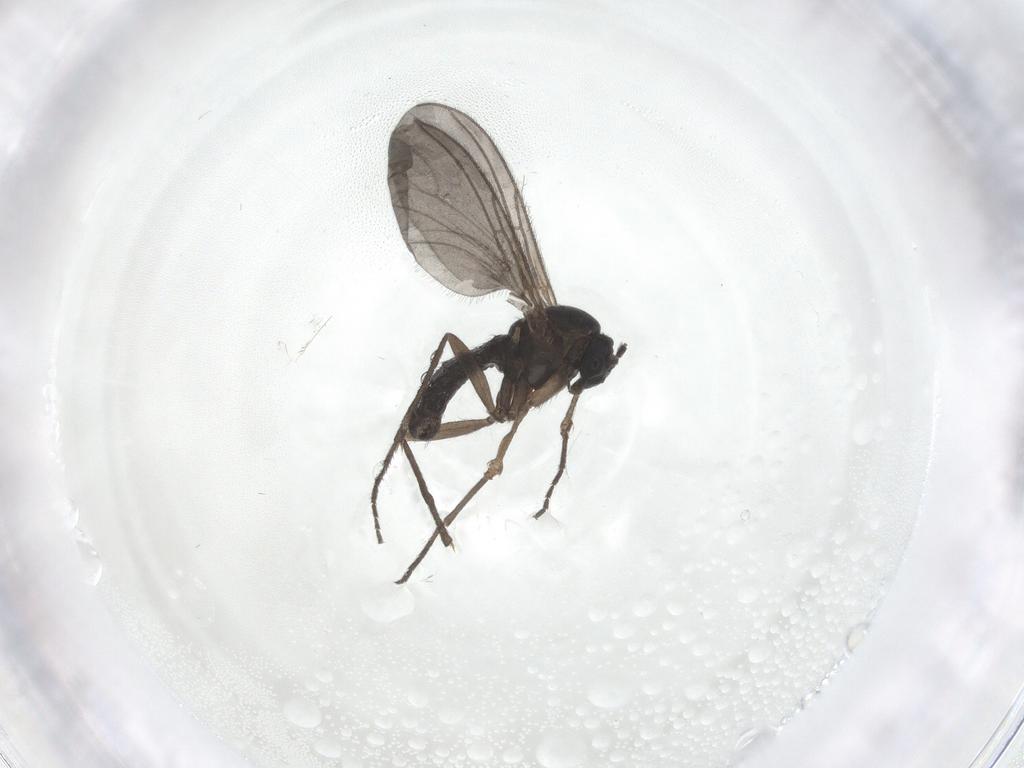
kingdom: Animalia
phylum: Arthropoda
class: Insecta
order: Diptera
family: Sciaridae
